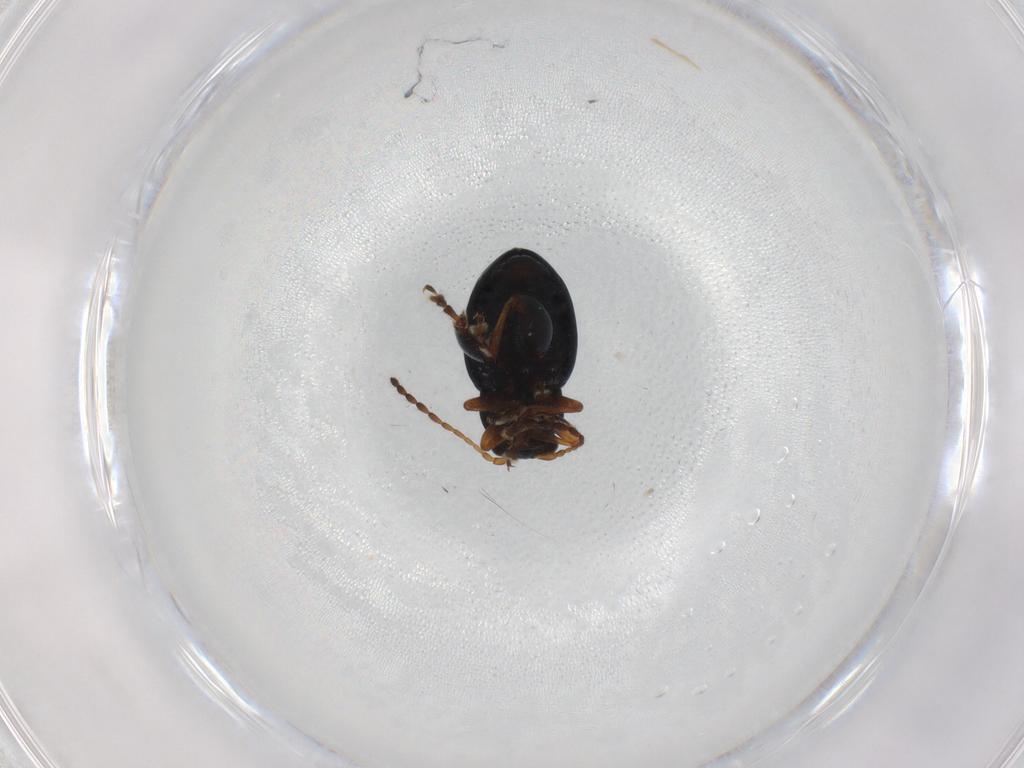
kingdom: Animalia
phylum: Arthropoda
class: Insecta
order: Coleoptera
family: Chrysomelidae
